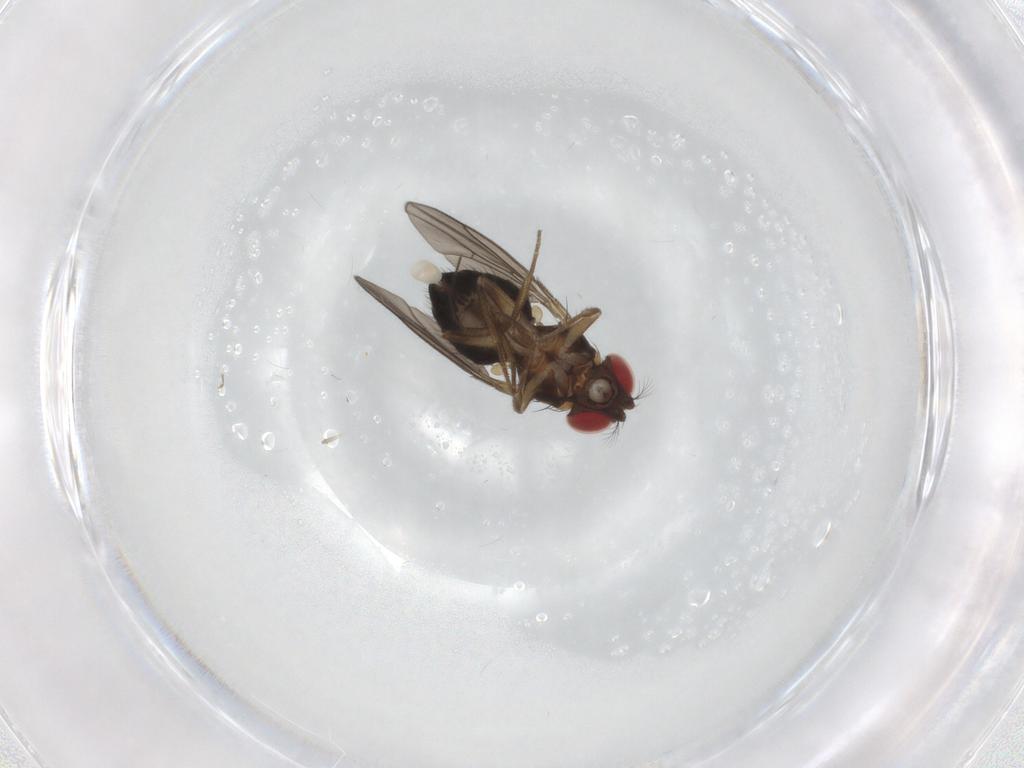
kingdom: Animalia
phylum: Arthropoda
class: Insecta
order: Diptera
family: Drosophilidae
